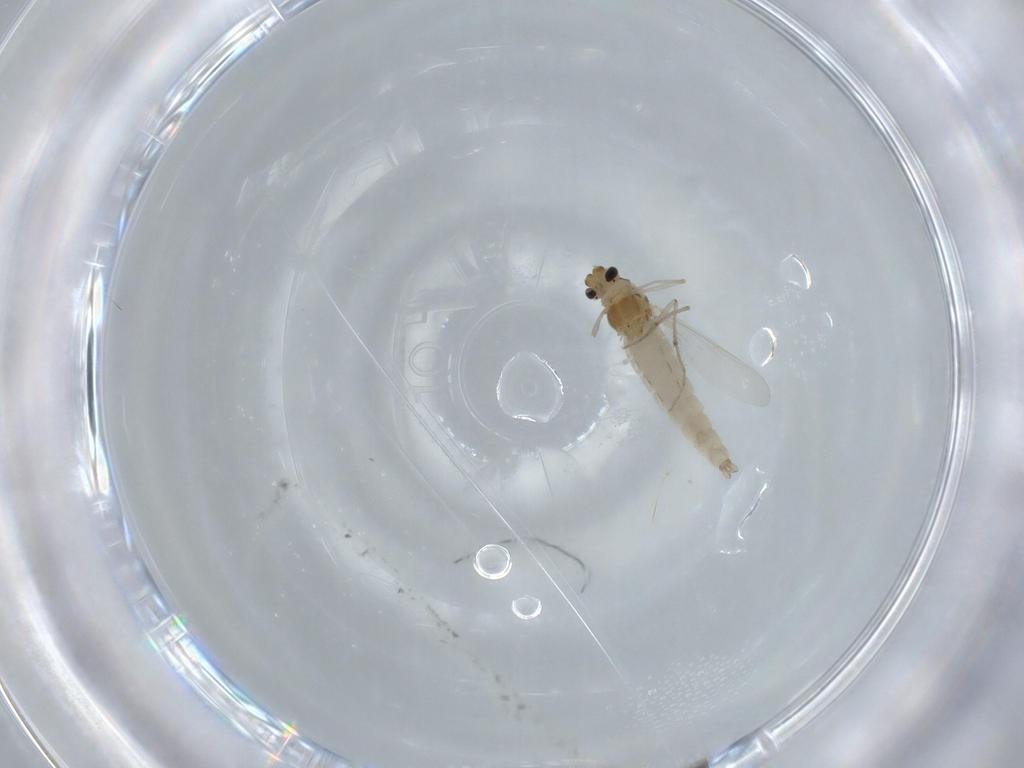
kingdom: Animalia
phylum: Arthropoda
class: Insecta
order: Diptera
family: Chironomidae
